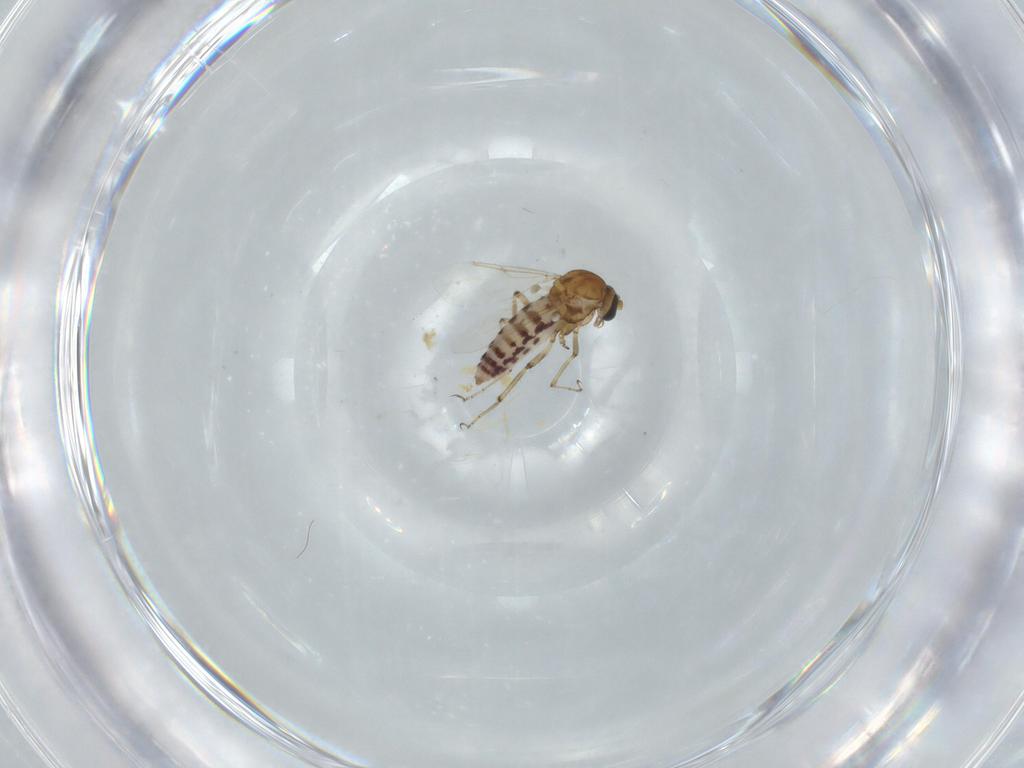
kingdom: Animalia
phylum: Arthropoda
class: Insecta
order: Diptera
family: Ceratopogonidae
